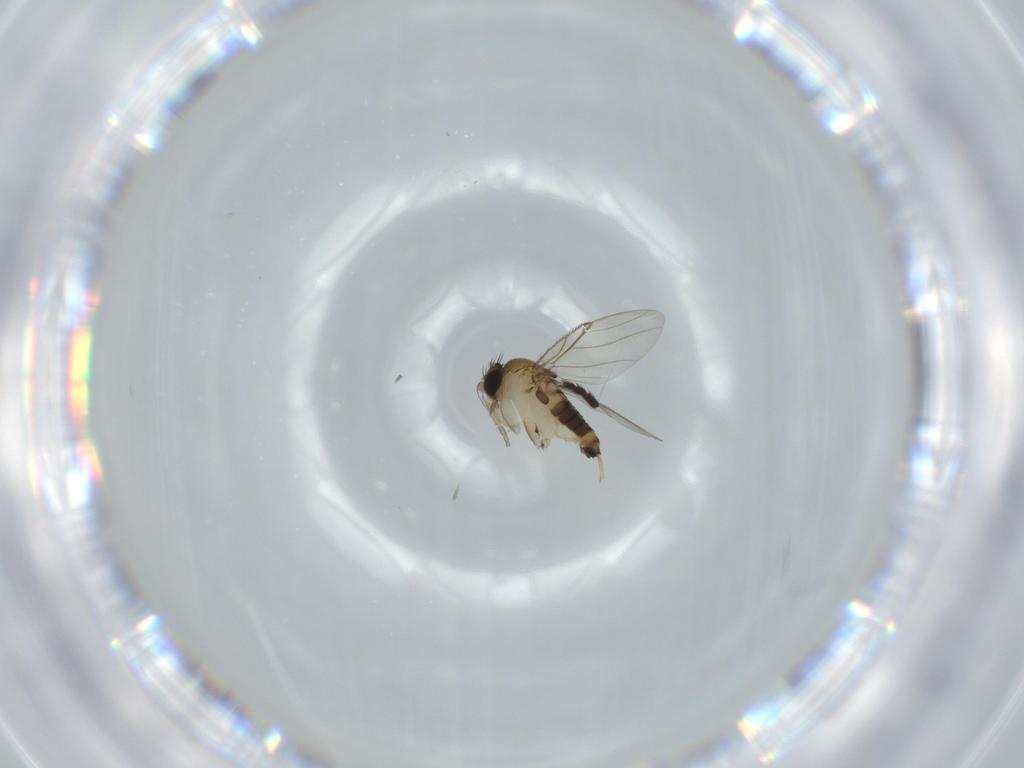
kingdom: Animalia
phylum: Arthropoda
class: Insecta
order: Diptera
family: Phoridae
